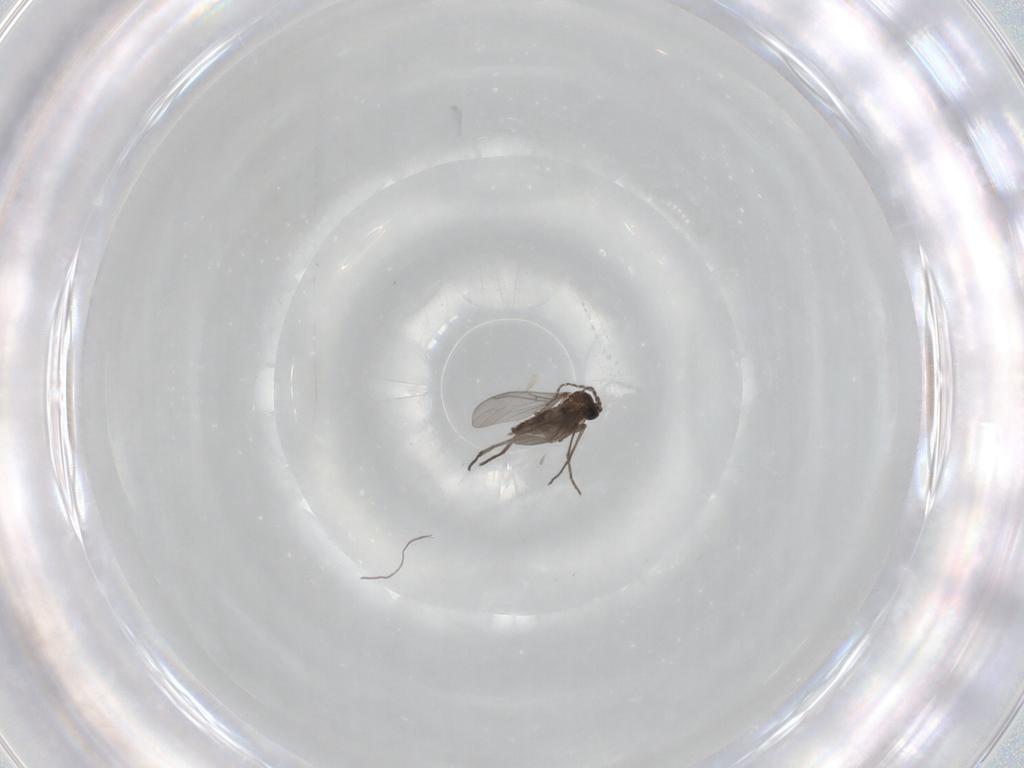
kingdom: Animalia
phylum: Arthropoda
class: Insecta
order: Diptera
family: Sciaridae
